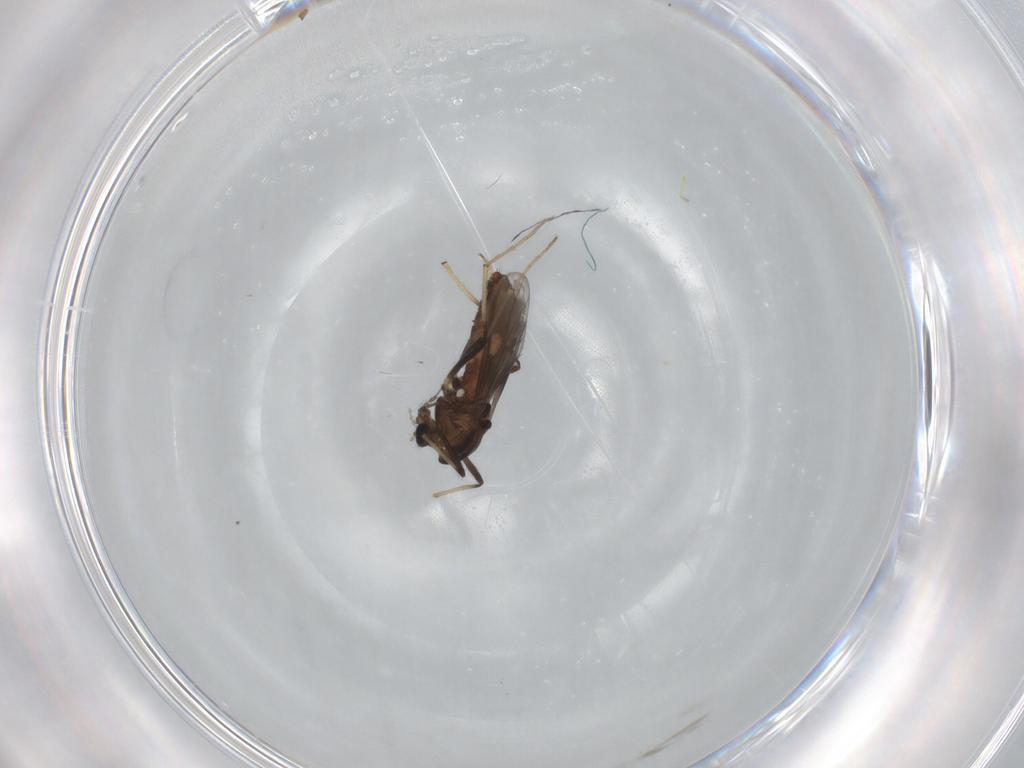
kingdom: Animalia
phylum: Arthropoda
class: Insecta
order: Diptera
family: Chironomidae
